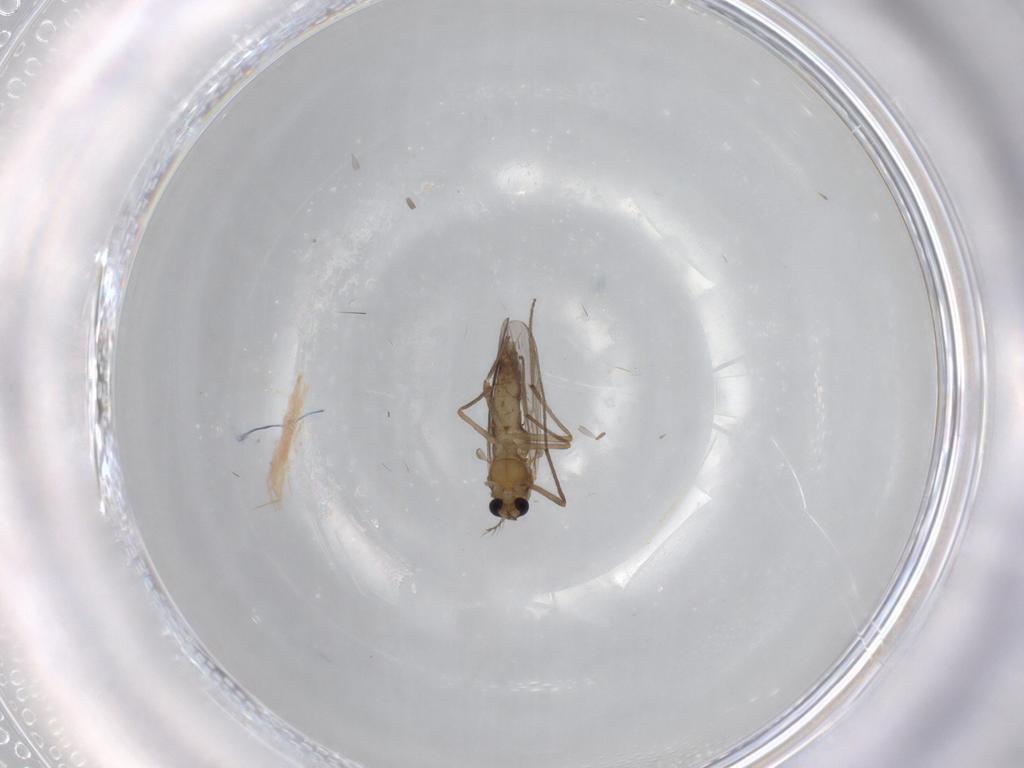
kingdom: Animalia
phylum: Arthropoda
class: Insecta
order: Diptera
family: Chironomidae
